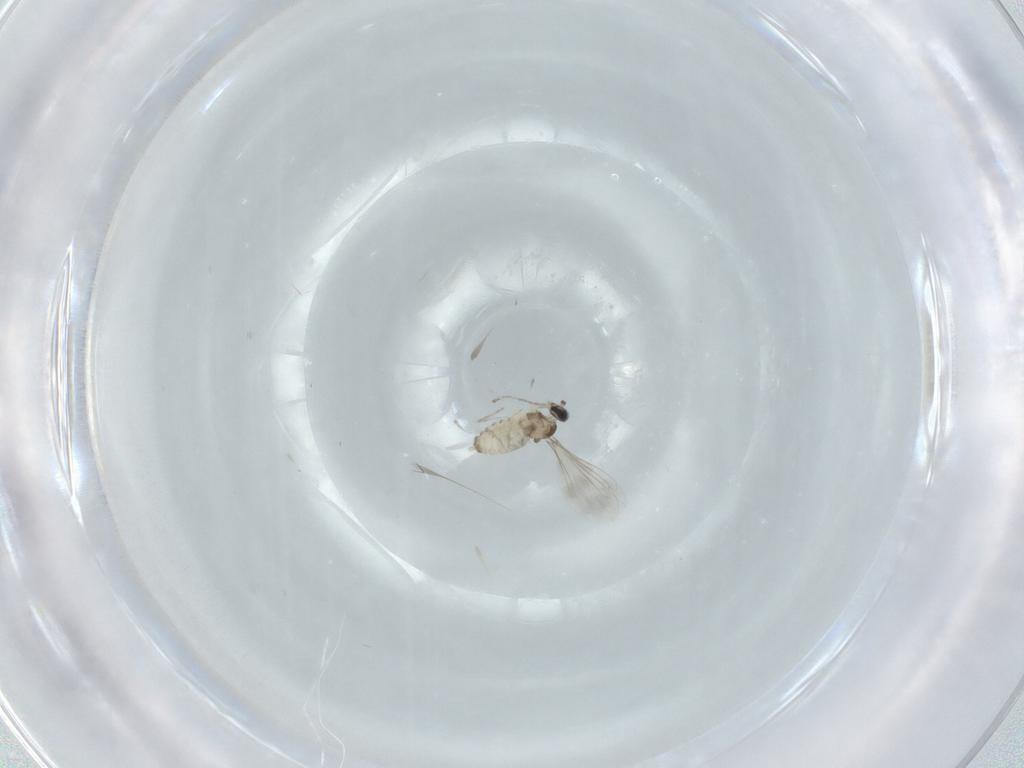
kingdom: Animalia
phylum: Arthropoda
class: Insecta
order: Diptera
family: Cecidomyiidae
